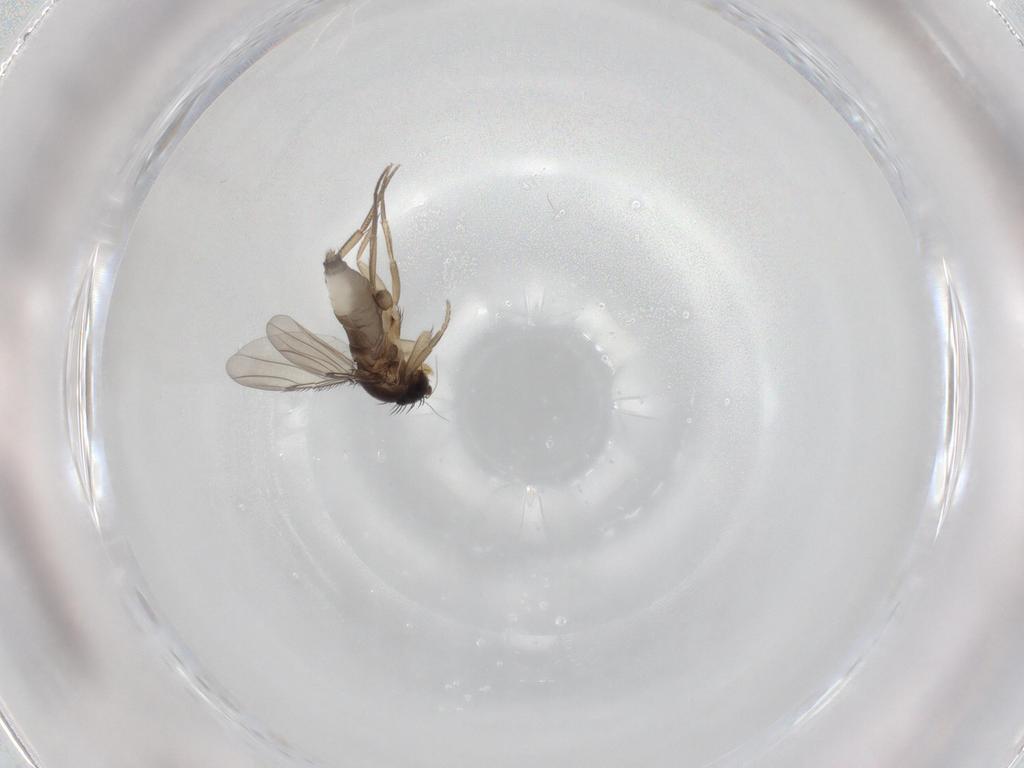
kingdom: Animalia
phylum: Arthropoda
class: Insecta
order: Diptera
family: Phoridae
